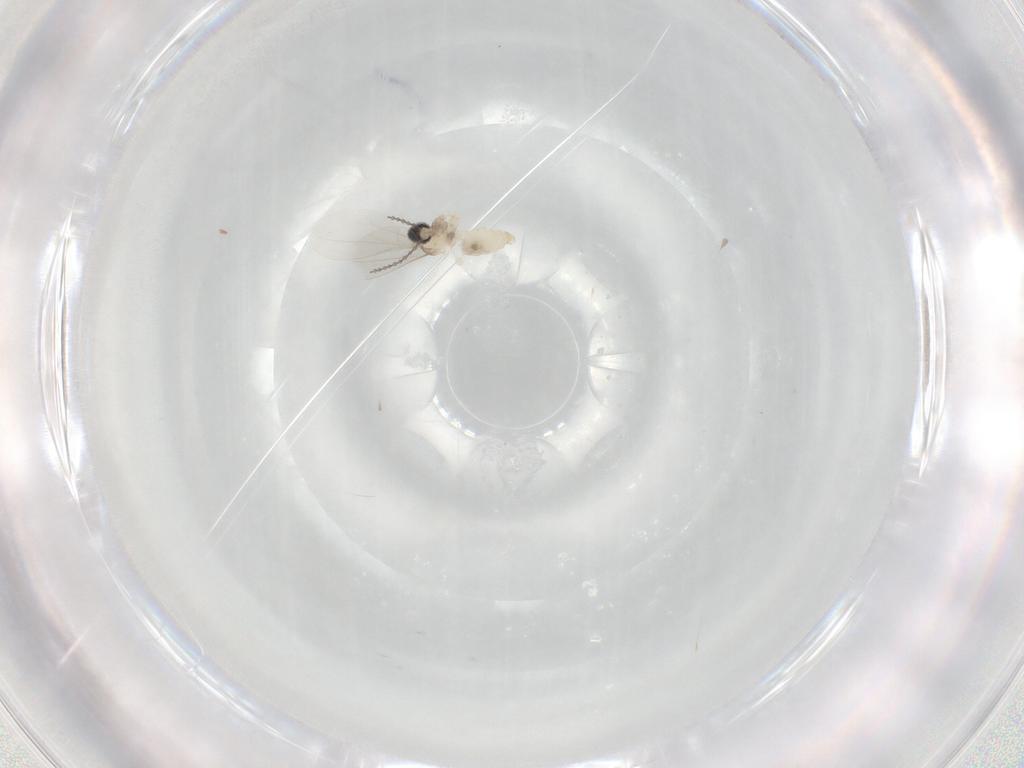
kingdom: Animalia
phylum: Arthropoda
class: Insecta
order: Diptera
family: Cecidomyiidae
